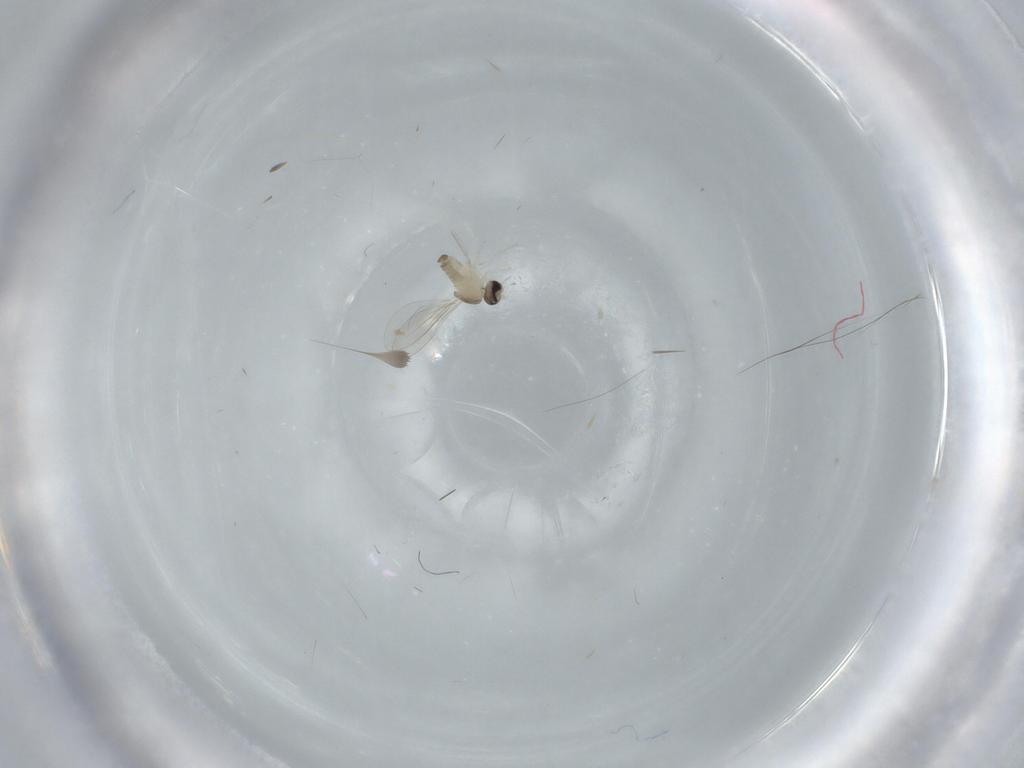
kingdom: Animalia
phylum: Arthropoda
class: Insecta
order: Diptera
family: Cecidomyiidae
